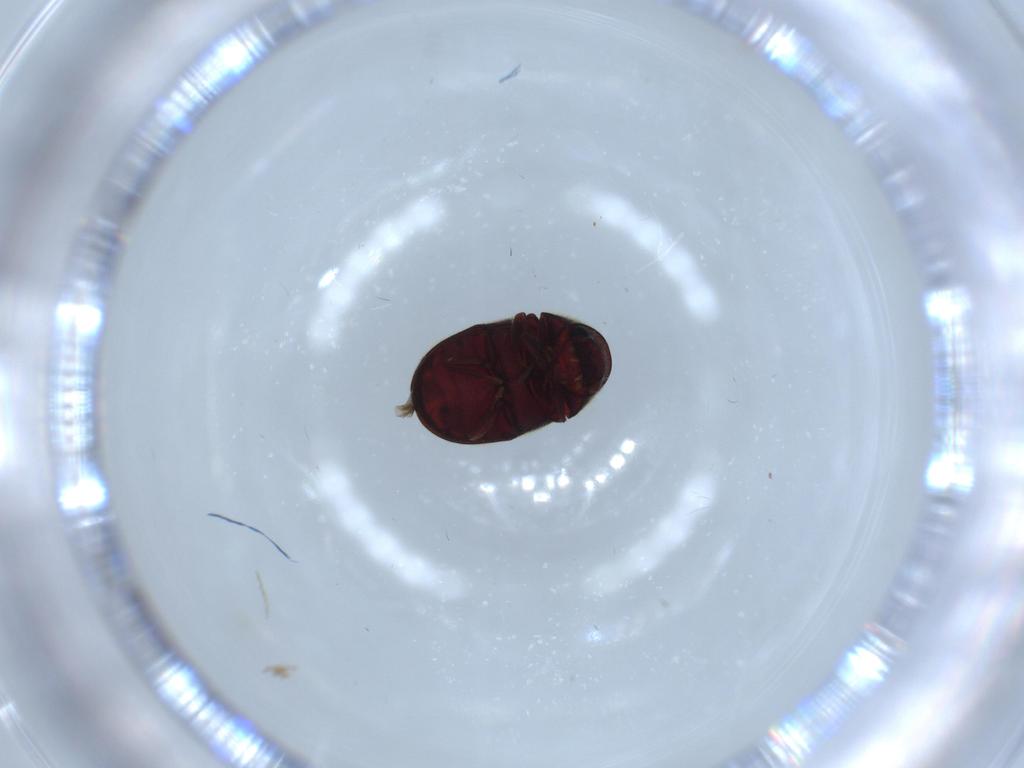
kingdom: Animalia
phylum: Arthropoda
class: Insecta
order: Coleoptera
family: Ptinidae
